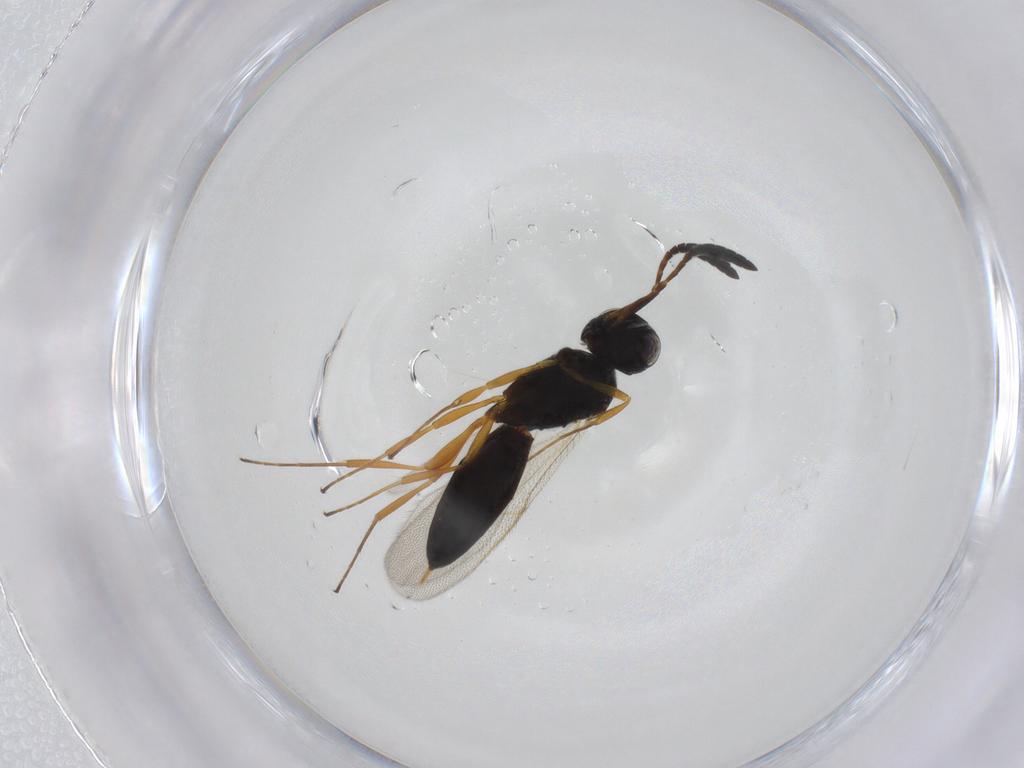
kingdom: Animalia
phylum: Arthropoda
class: Insecta
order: Hymenoptera
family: Scelionidae
